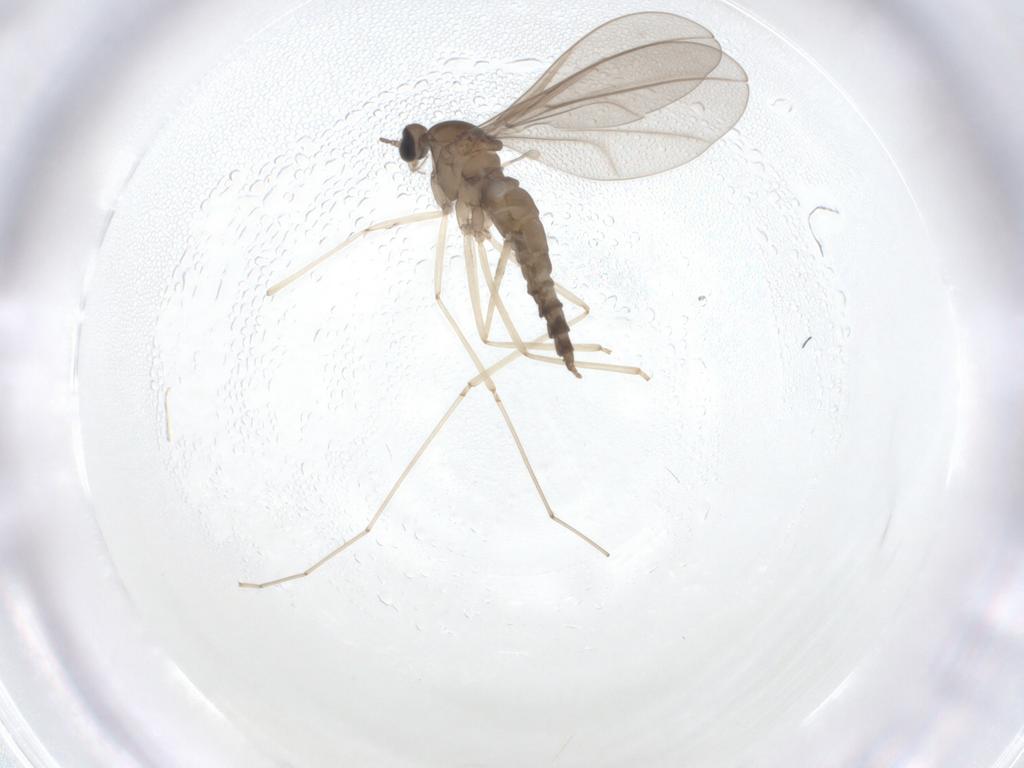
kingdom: Animalia
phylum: Arthropoda
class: Insecta
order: Diptera
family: Cecidomyiidae
